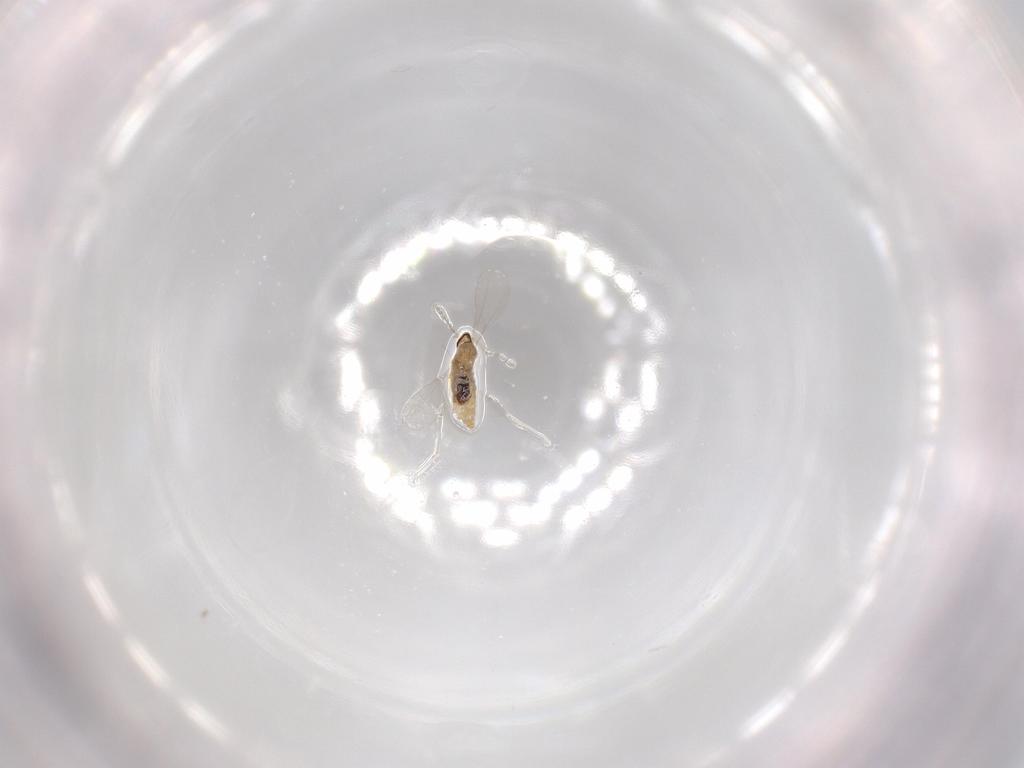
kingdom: Animalia
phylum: Arthropoda
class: Insecta
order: Diptera
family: Cecidomyiidae
